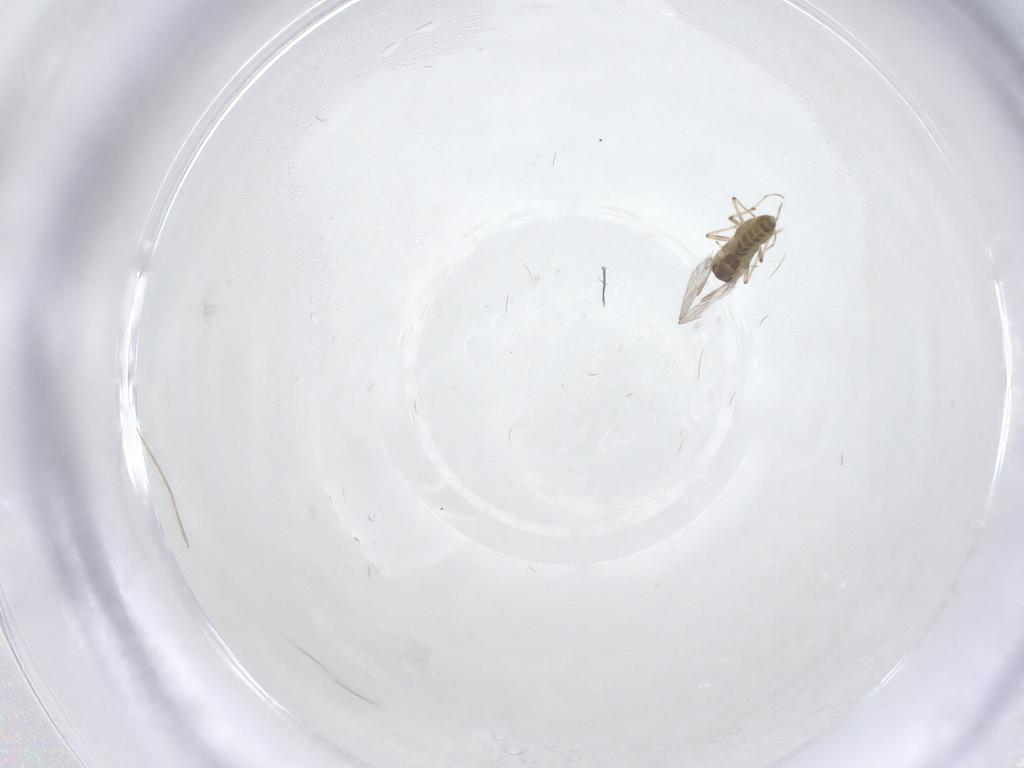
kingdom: Animalia
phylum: Arthropoda
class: Insecta
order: Diptera
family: Chironomidae
